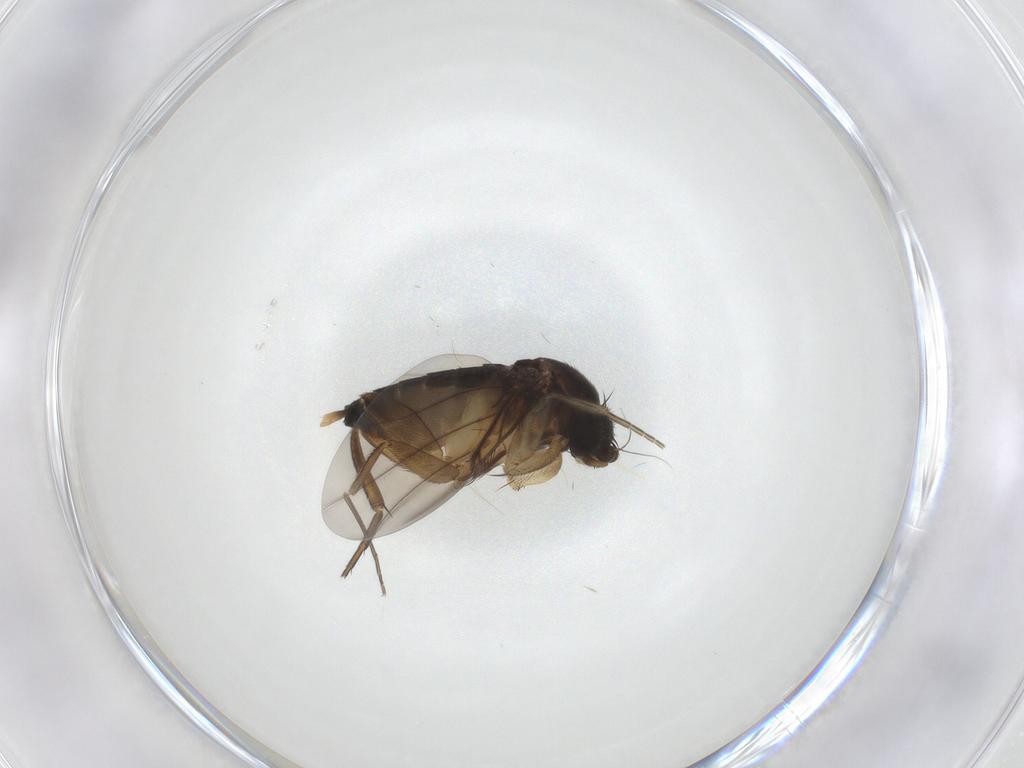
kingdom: Animalia
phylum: Arthropoda
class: Insecta
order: Diptera
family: Phoridae
